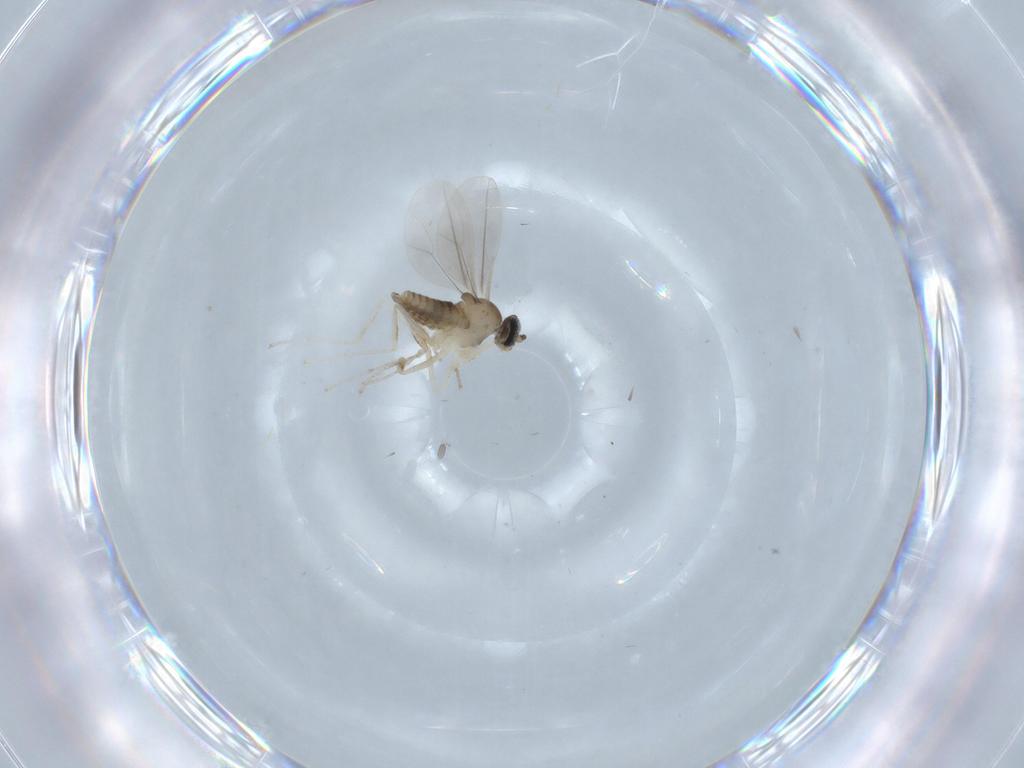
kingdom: Animalia
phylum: Arthropoda
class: Insecta
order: Diptera
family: Cecidomyiidae
